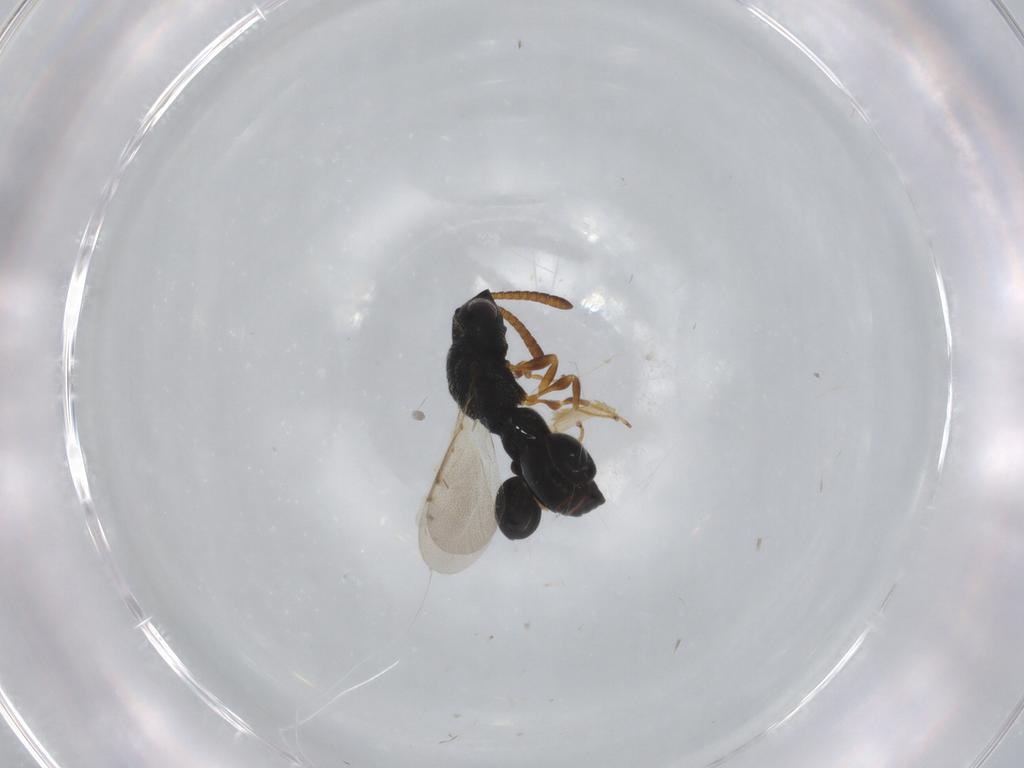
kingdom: Animalia
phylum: Arthropoda
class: Insecta
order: Hymenoptera
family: Chalcididae
